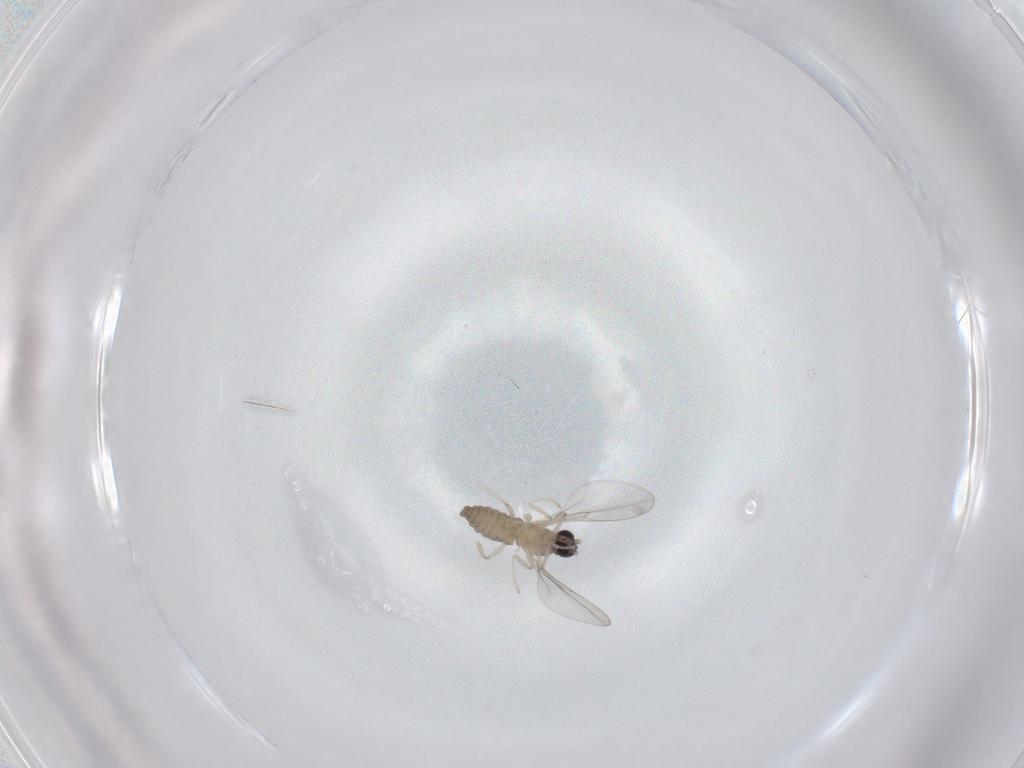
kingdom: Animalia
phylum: Arthropoda
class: Insecta
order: Diptera
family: Cecidomyiidae
